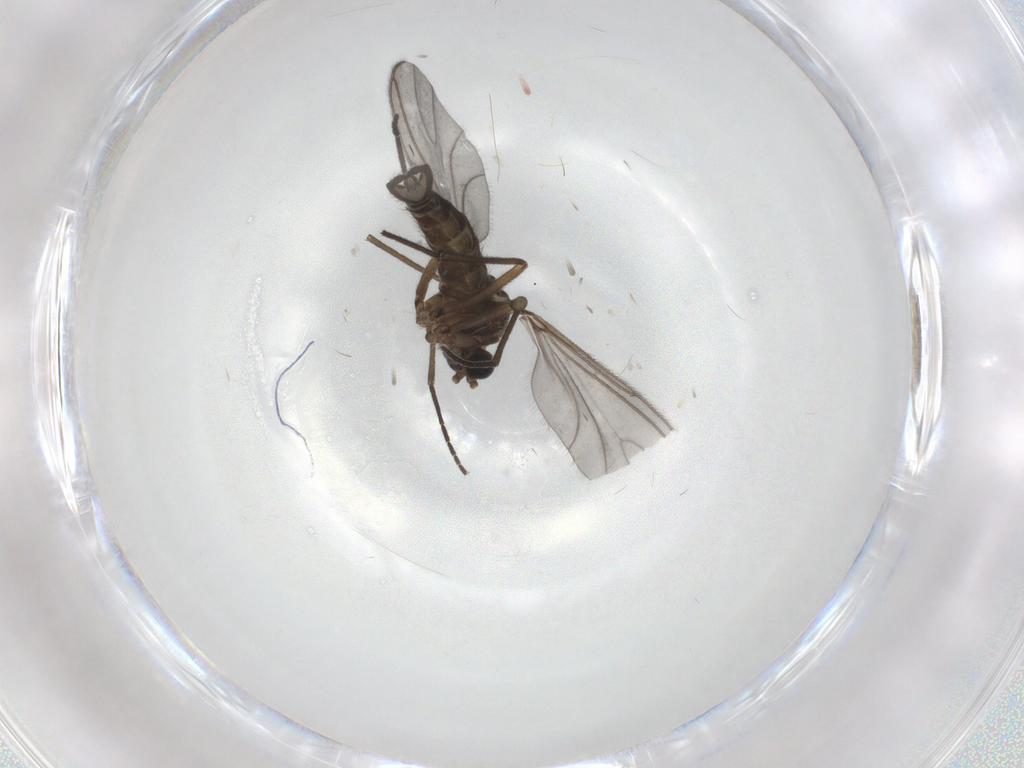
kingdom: Animalia
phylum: Arthropoda
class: Insecta
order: Diptera
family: Sciaridae
